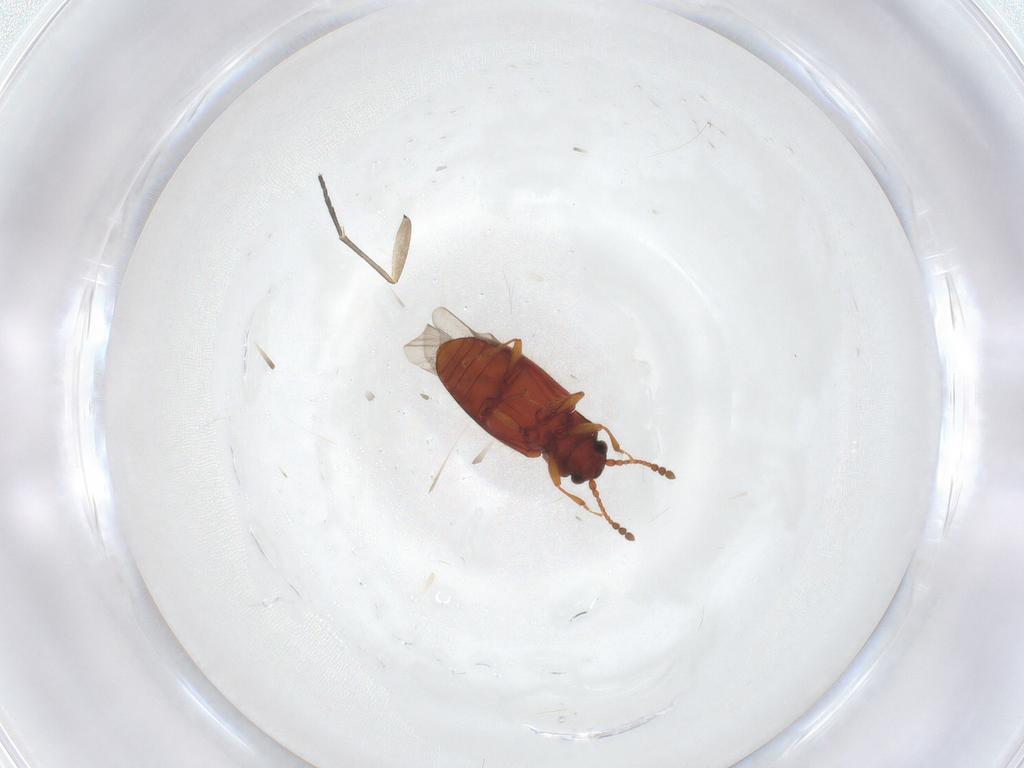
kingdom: Animalia
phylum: Arthropoda
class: Insecta
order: Coleoptera
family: Cryptophagidae
